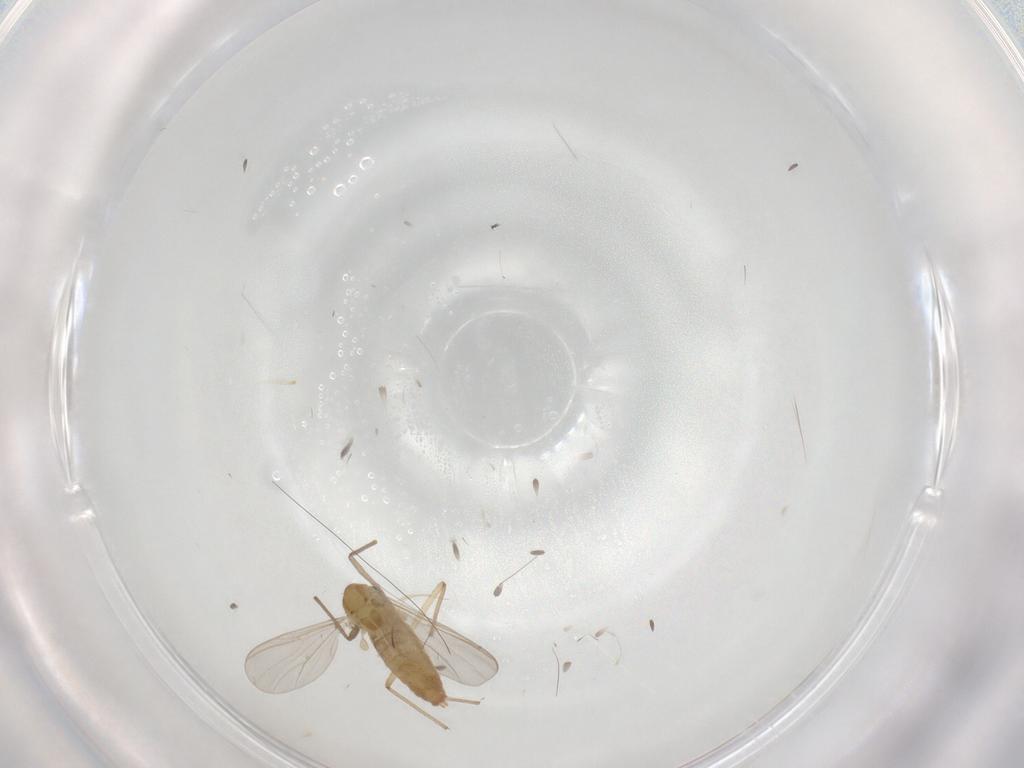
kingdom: Animalia
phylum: Arthropoda
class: Insecta
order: Diptera
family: Chironomidae
